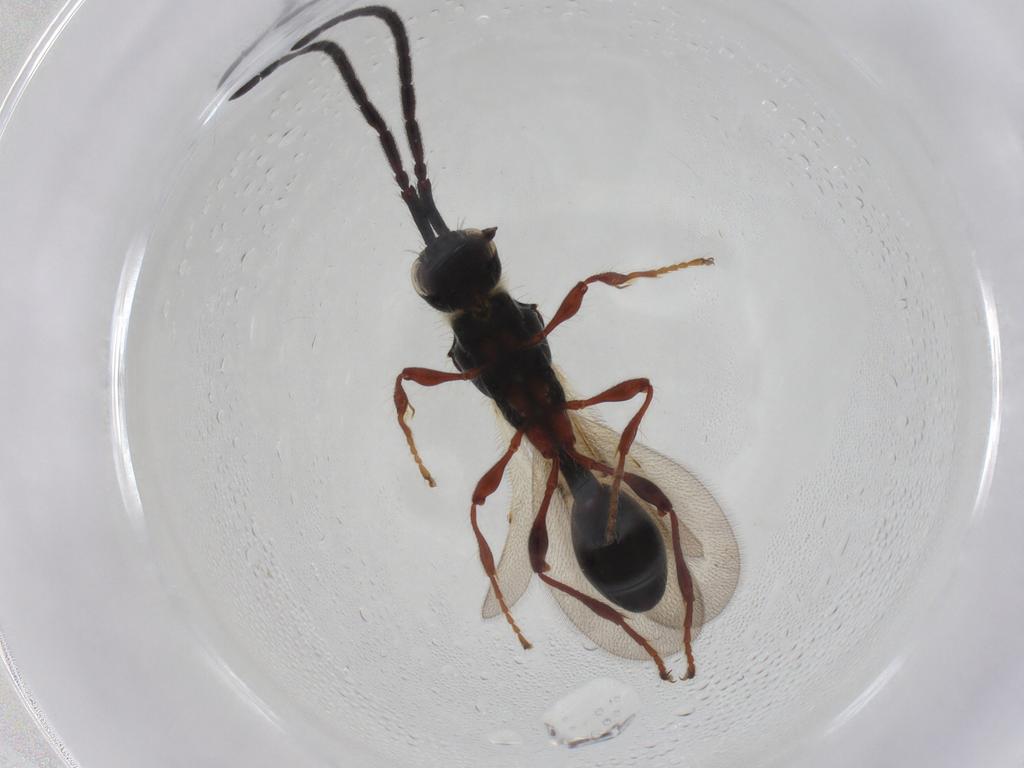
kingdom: Animalia
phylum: Arthropoda
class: Insecta
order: Hymenoptera
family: Diapriidae
